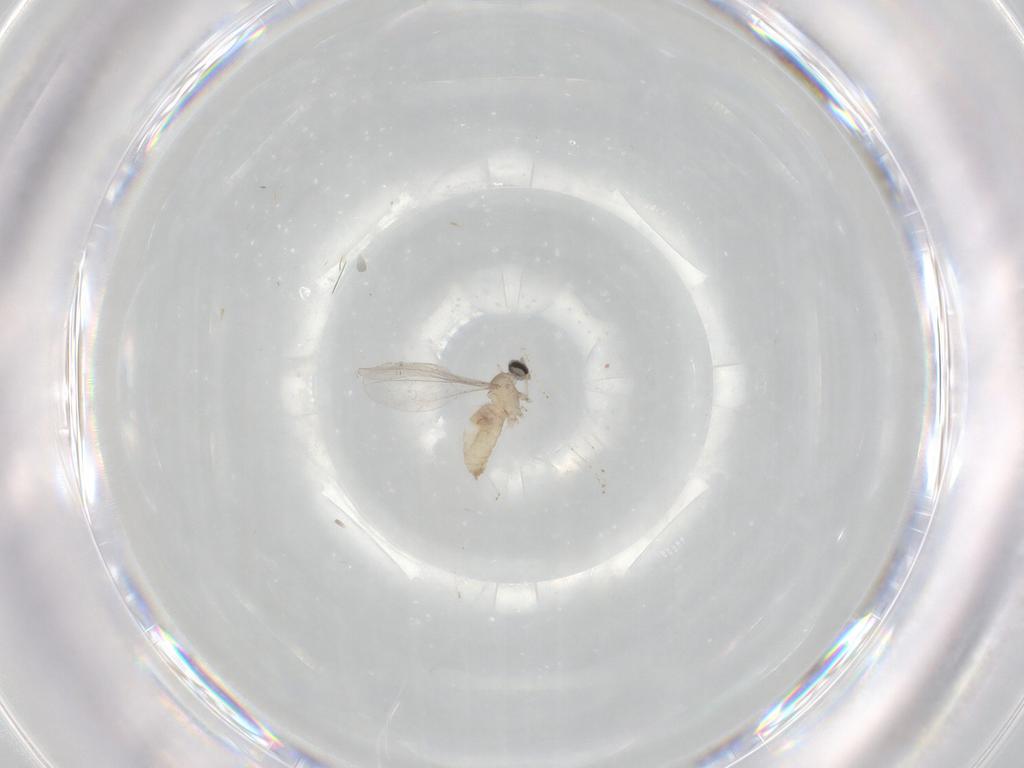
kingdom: Animalia
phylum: Arthropoda
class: Insecta
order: Diptera
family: Cecidomyiidae
